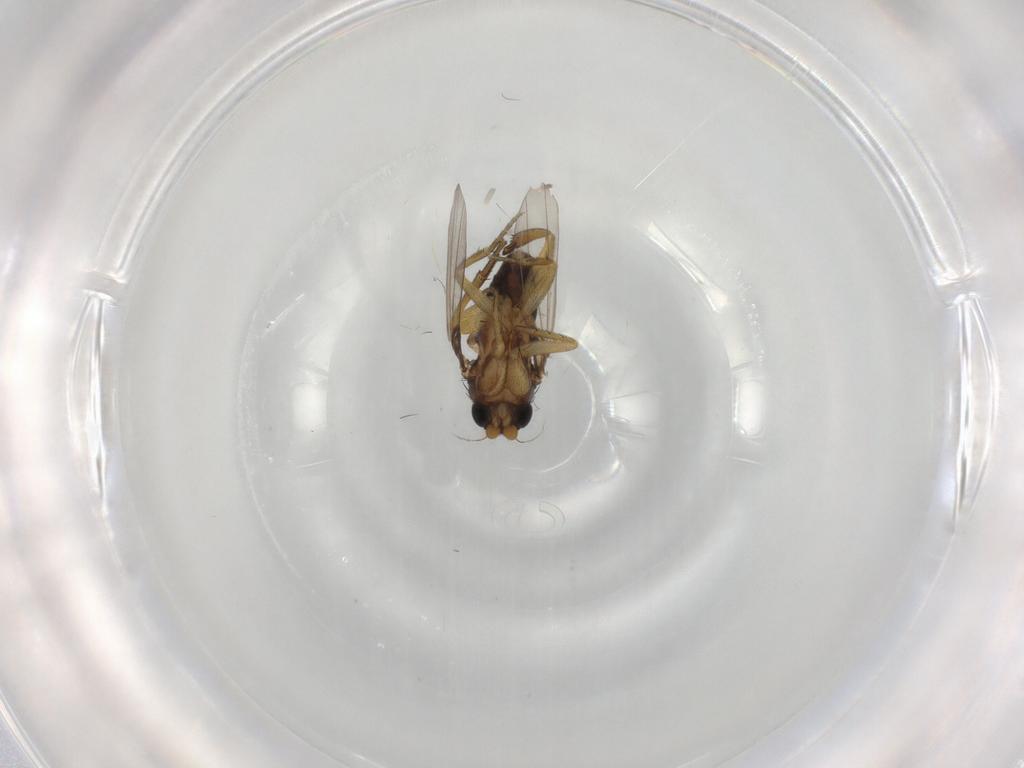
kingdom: Animalia
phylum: Arthropoda
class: Insecta
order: Diptera
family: Phoridae
